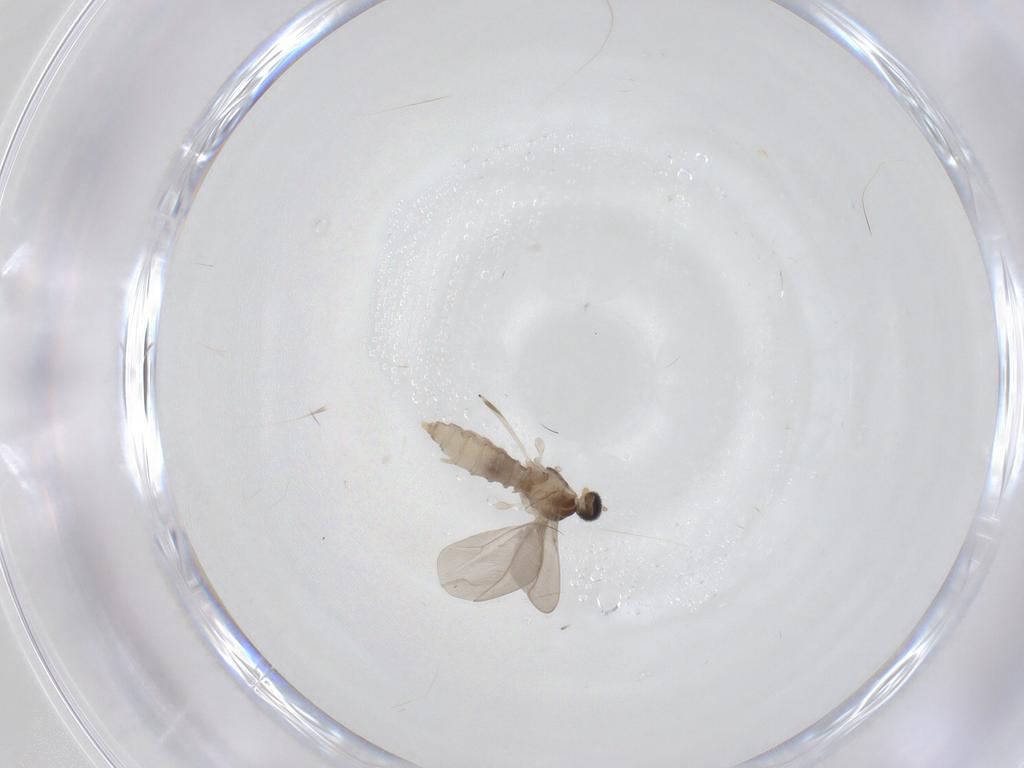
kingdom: Animalia
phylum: Arthropoda
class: Insecta
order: Diptera
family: Cecidomyiidae
